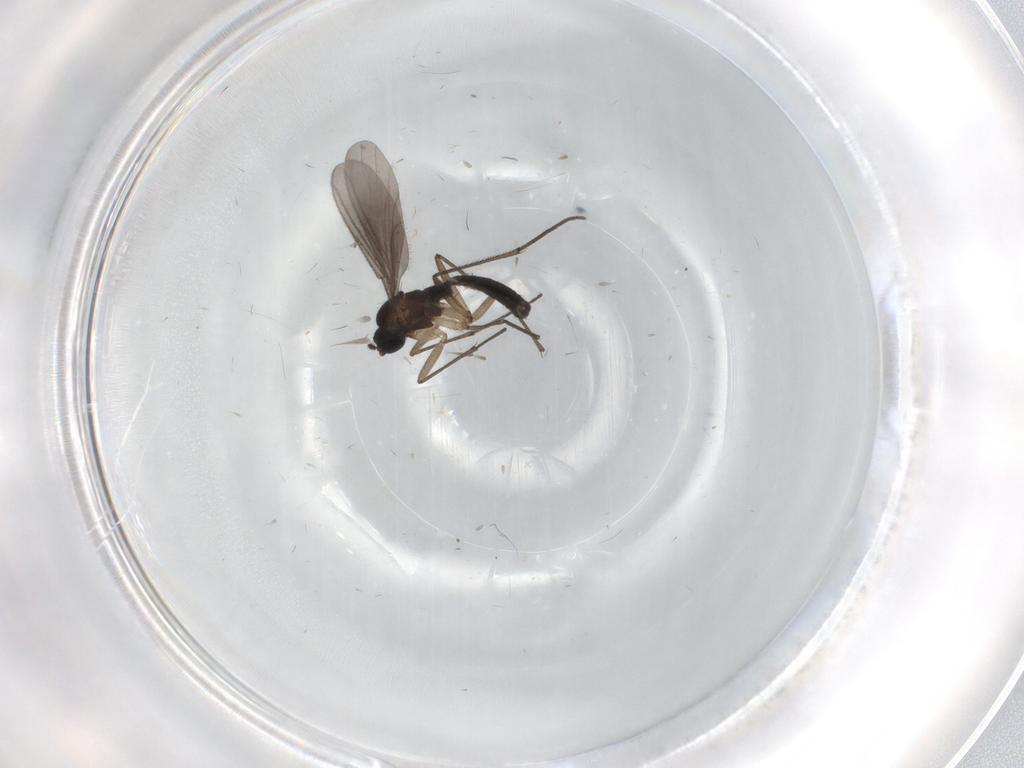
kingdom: Animalia
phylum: Arthropoda
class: Insecta
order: Diptera
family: Sciaridae
